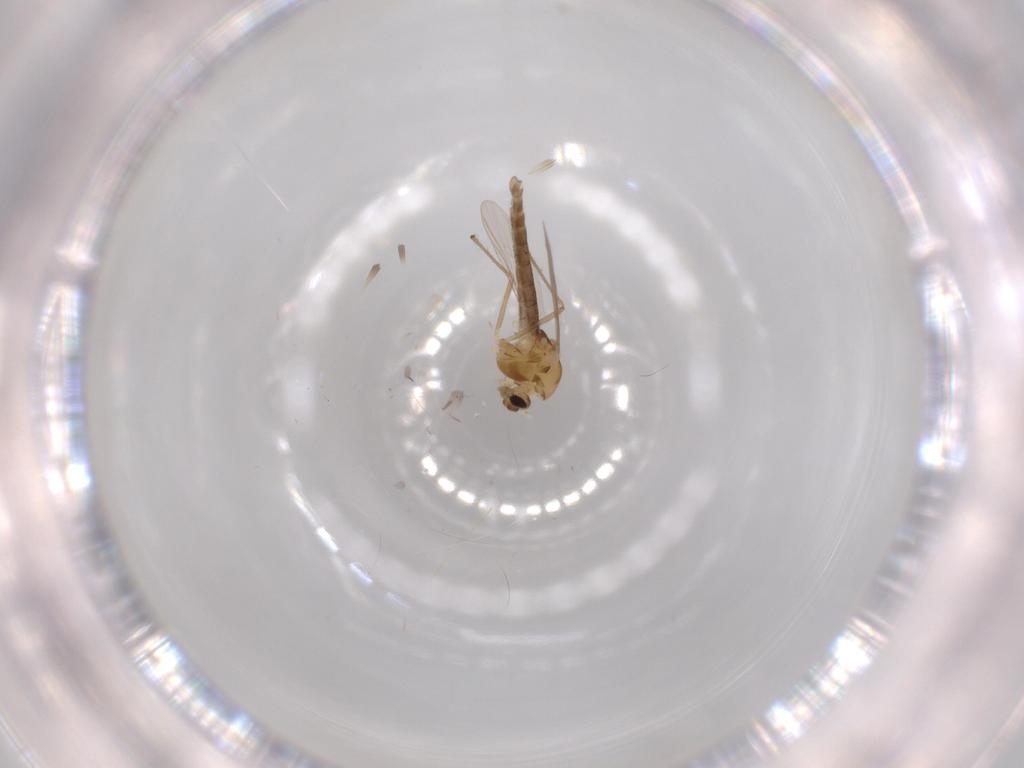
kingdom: Animalia
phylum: Arthropoda
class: Insecta
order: Diptera
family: Chironomidae
